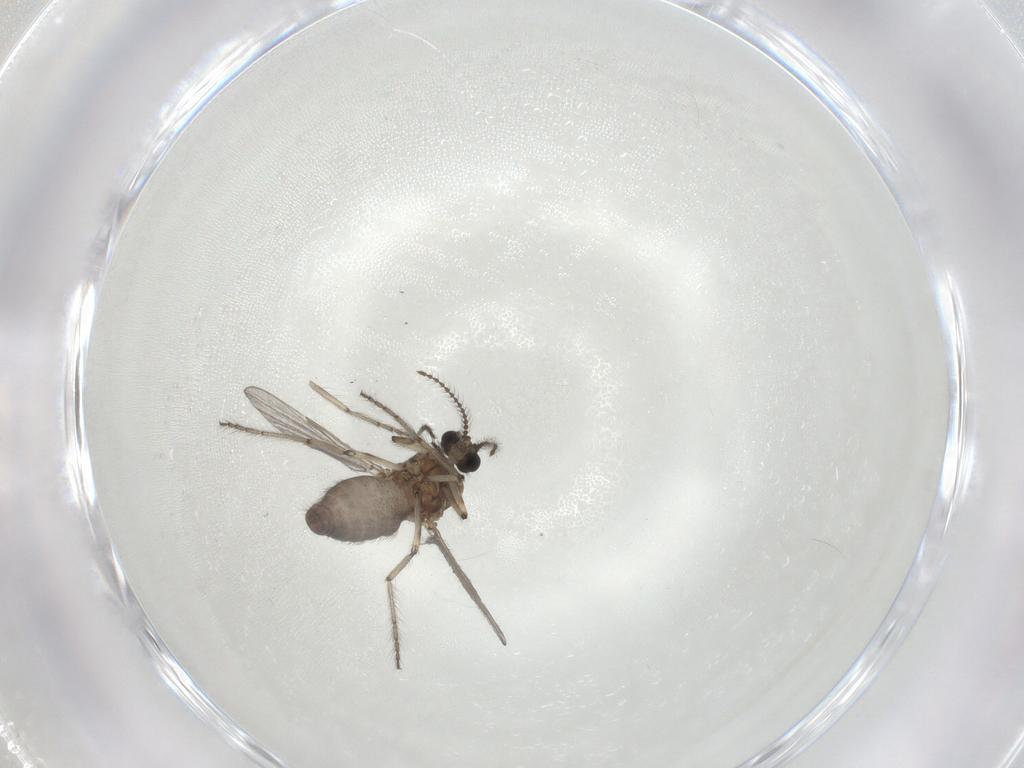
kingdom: Animalia
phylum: Arthropoda
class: Insecta
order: Diptera
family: Ceratopogonidae
